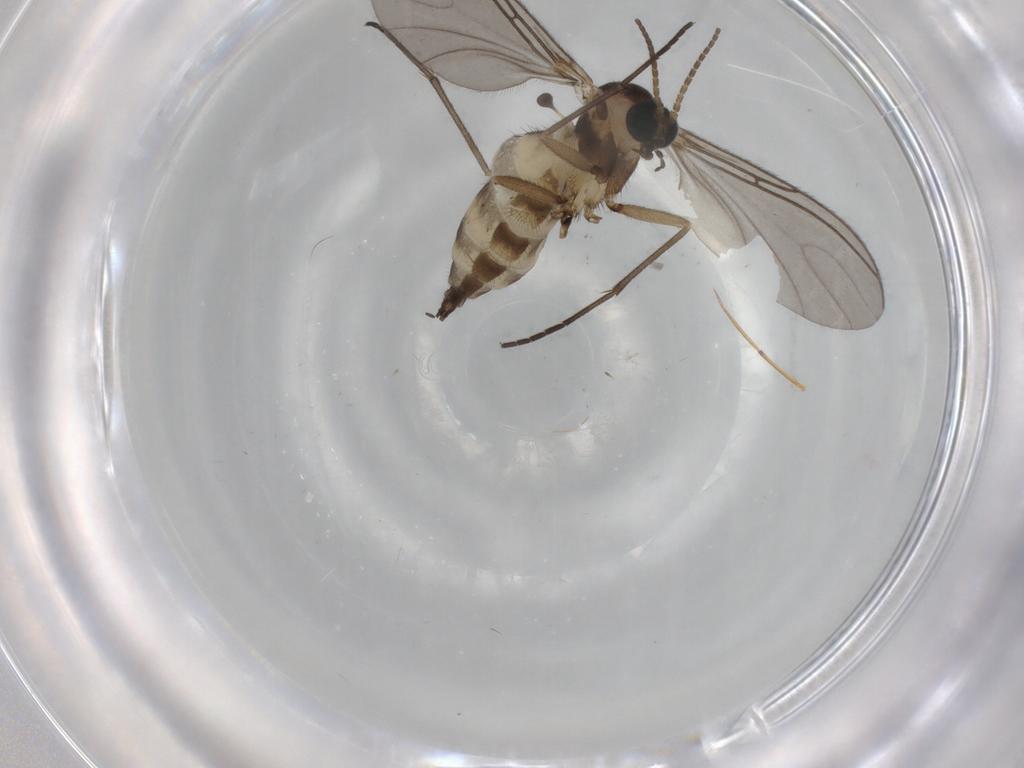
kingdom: Animalia
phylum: Arthropoda
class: Insecta
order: Diptera
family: Sciaridae
